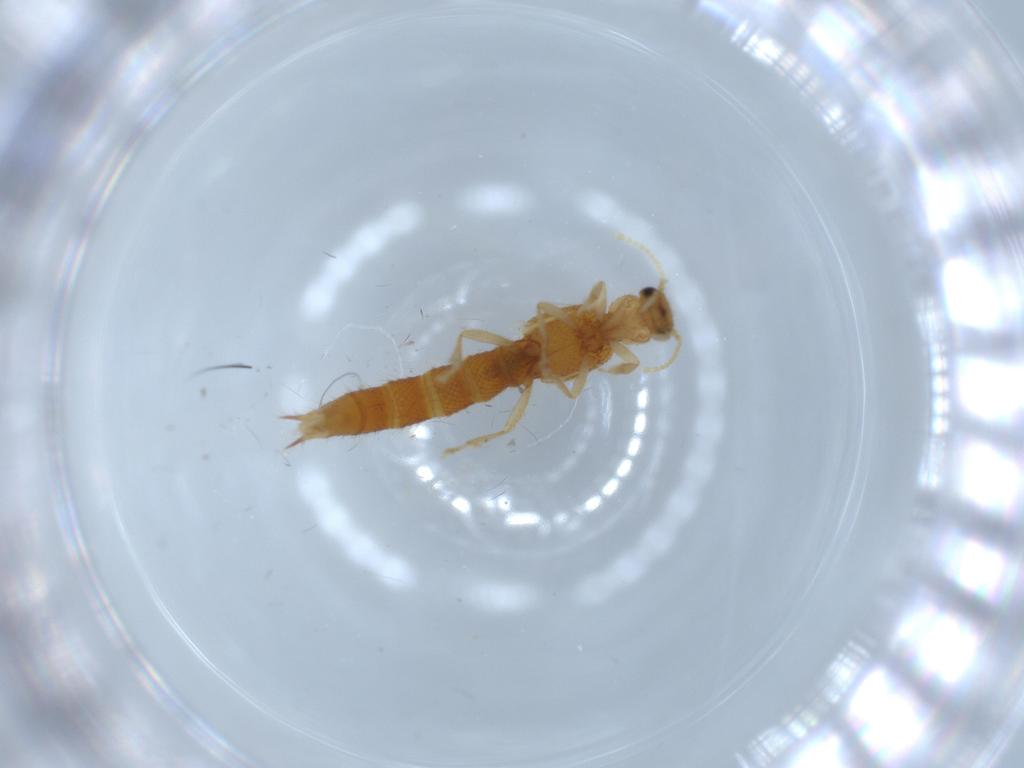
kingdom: Animalia
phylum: Arthropoda
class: Insecta
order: Coleoptera
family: Staphylinidae
